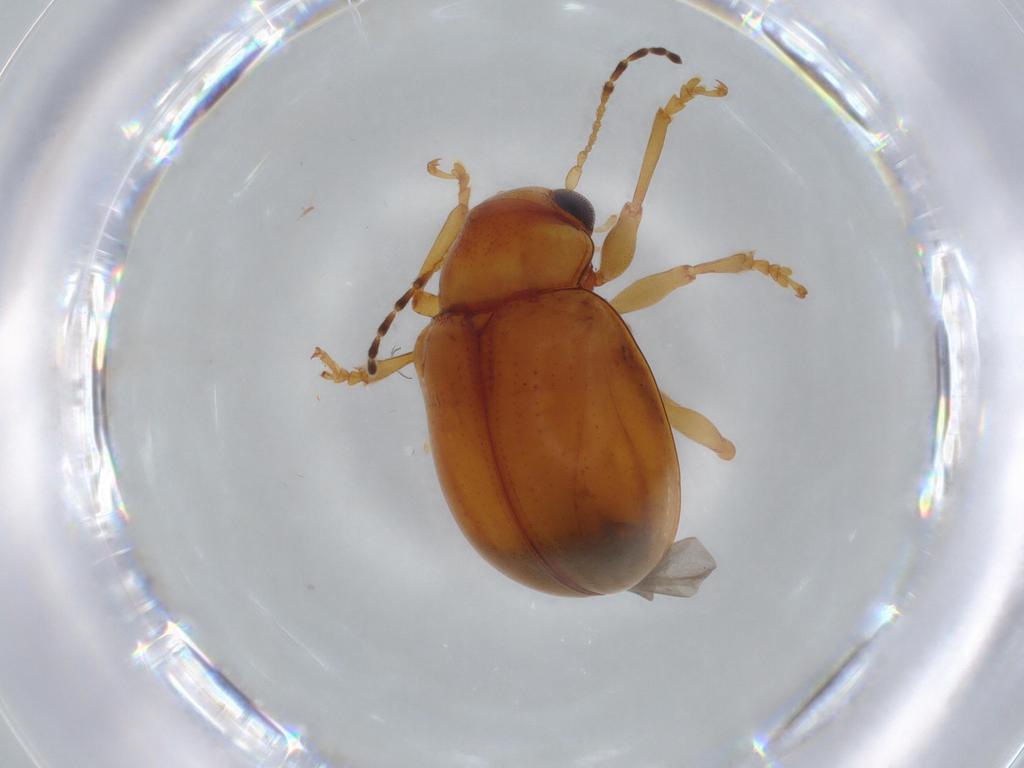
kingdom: Animalia
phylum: Arthropoda
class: Insecta
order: Coleoptera
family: Chrysomelidae
